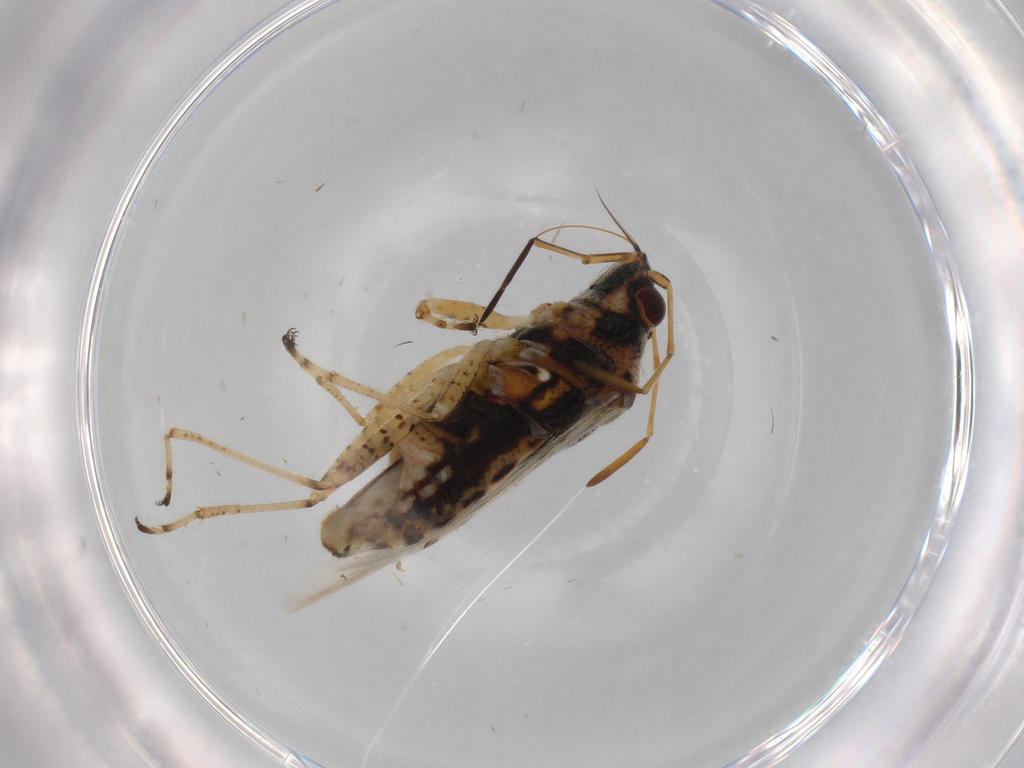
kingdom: Animalia
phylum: Arthropoda
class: Insecta
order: Hemiptera
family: Lygaeidae
